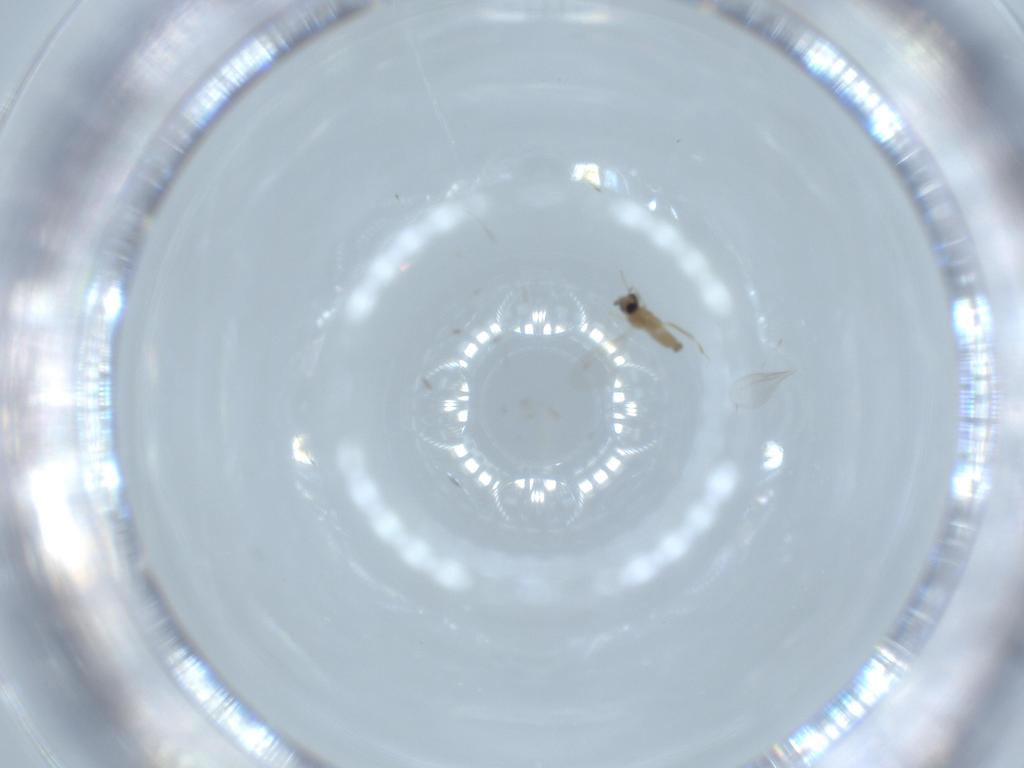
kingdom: Animalia
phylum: Arthropoda
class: Insecta
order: Diptera
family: Cecidomyiidae
